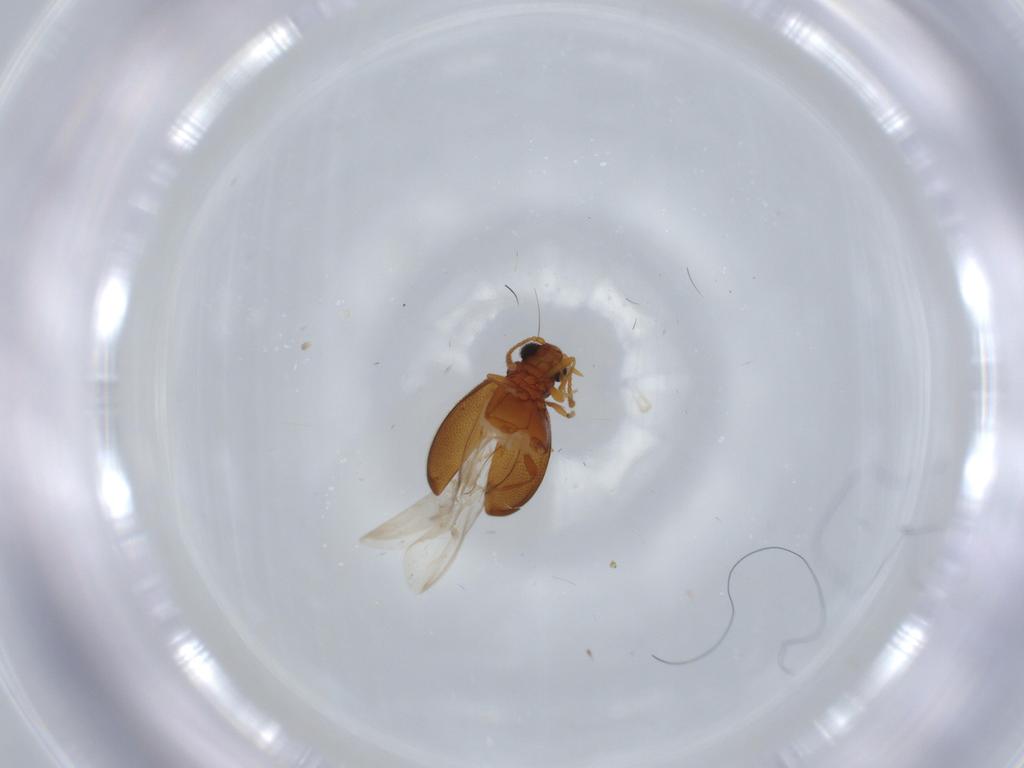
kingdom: Animalia
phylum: Arthropoda
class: Insecta
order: Coleoptera
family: Aderidae
